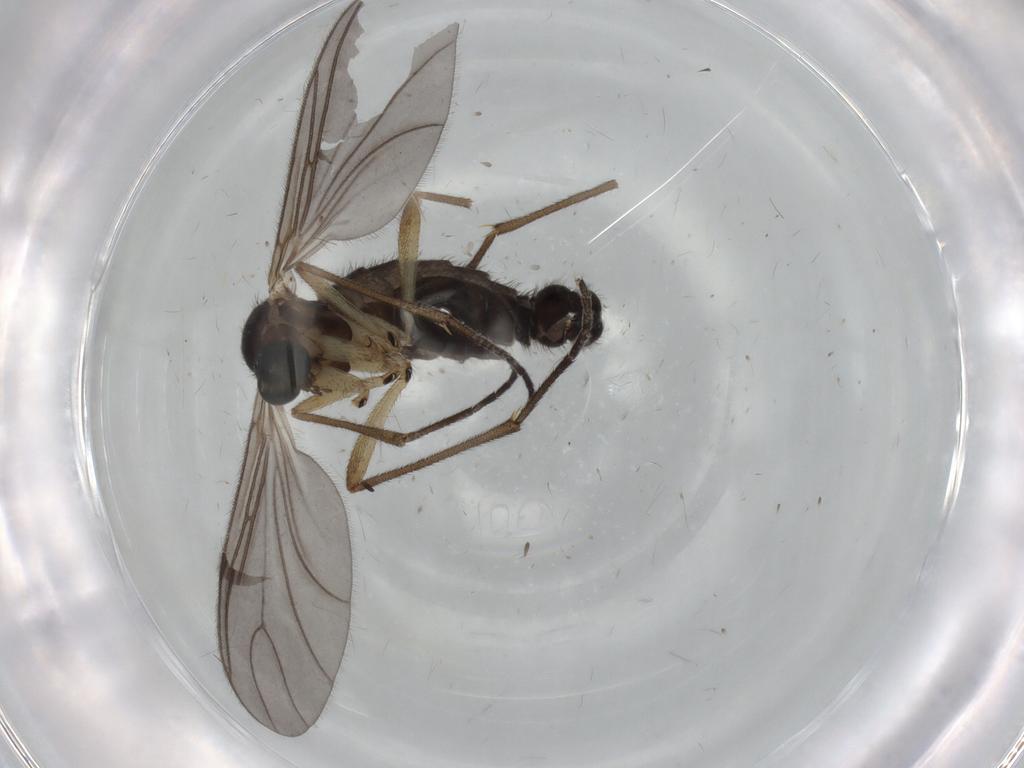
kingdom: Animalia
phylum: Arthropoda
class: Insecta
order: Diptera
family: Sciaridae
